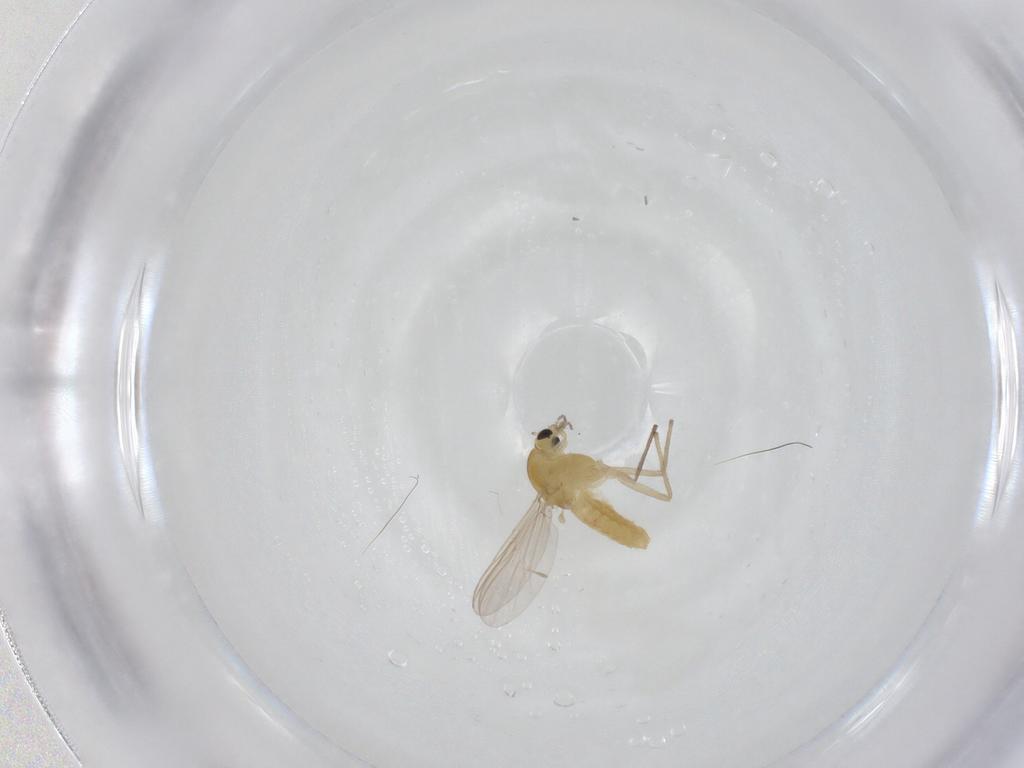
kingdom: Animalia
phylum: Arthropoda
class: Insecta
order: Diptera
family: Chironomidae
